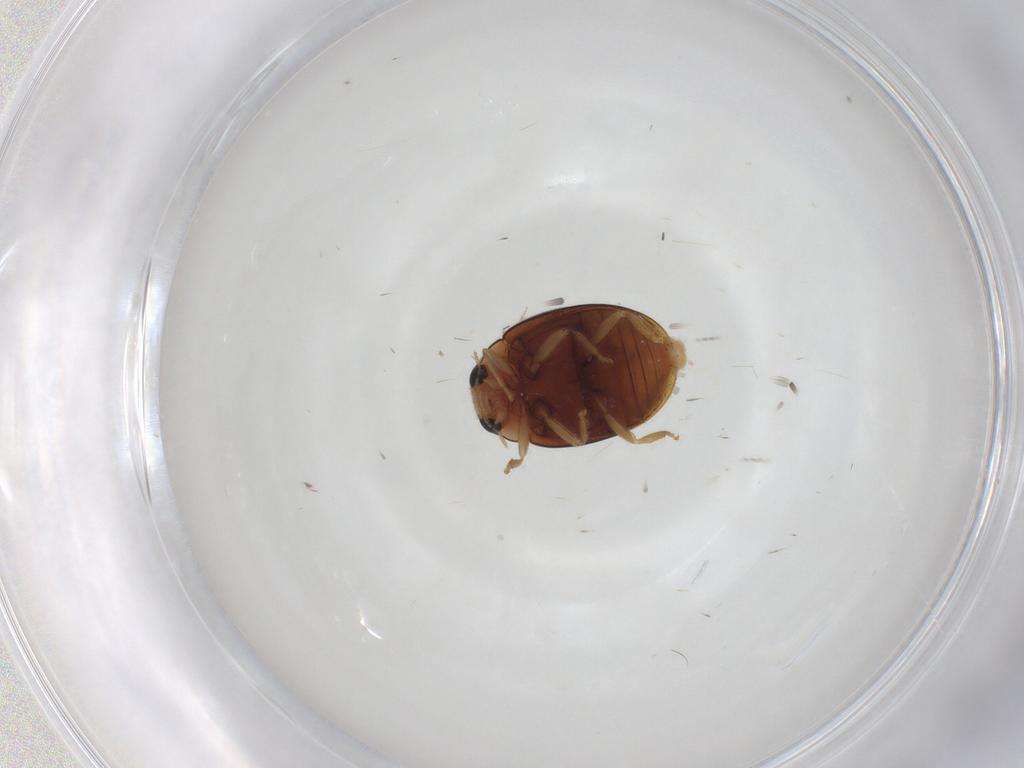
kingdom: Animalia
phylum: Arthropoda
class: Insecta
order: Coleoptera
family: Coccinellidae
